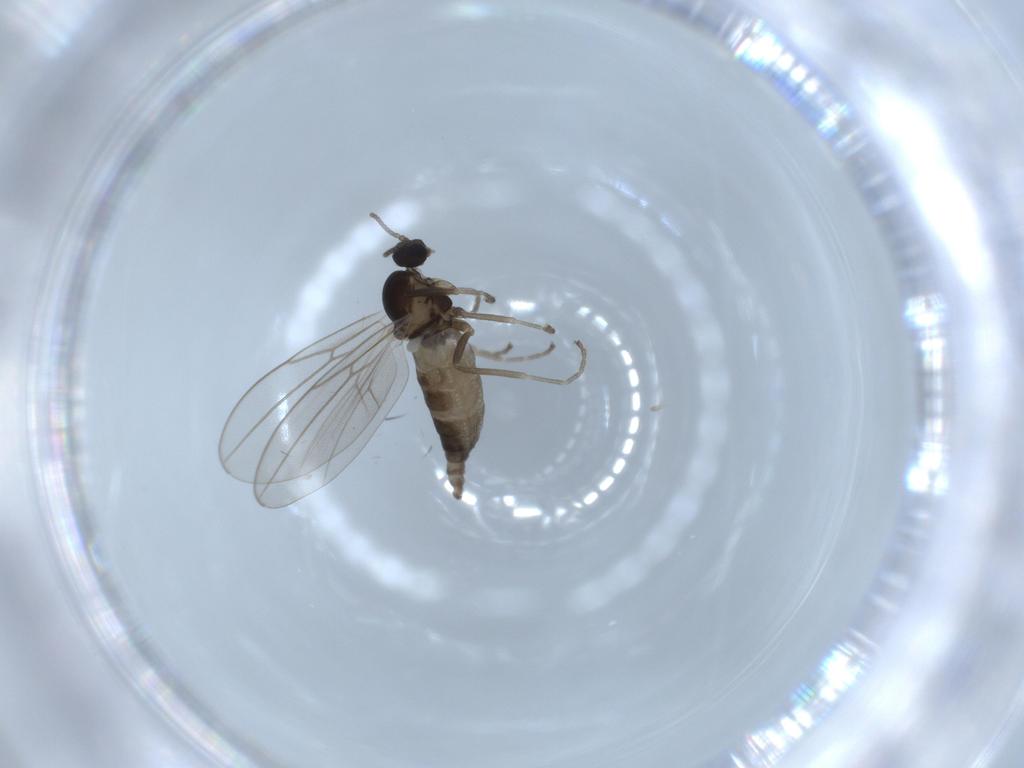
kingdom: Animalia
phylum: Arthropoda
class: Insecta
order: Diptera
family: Cecidomyiidae
